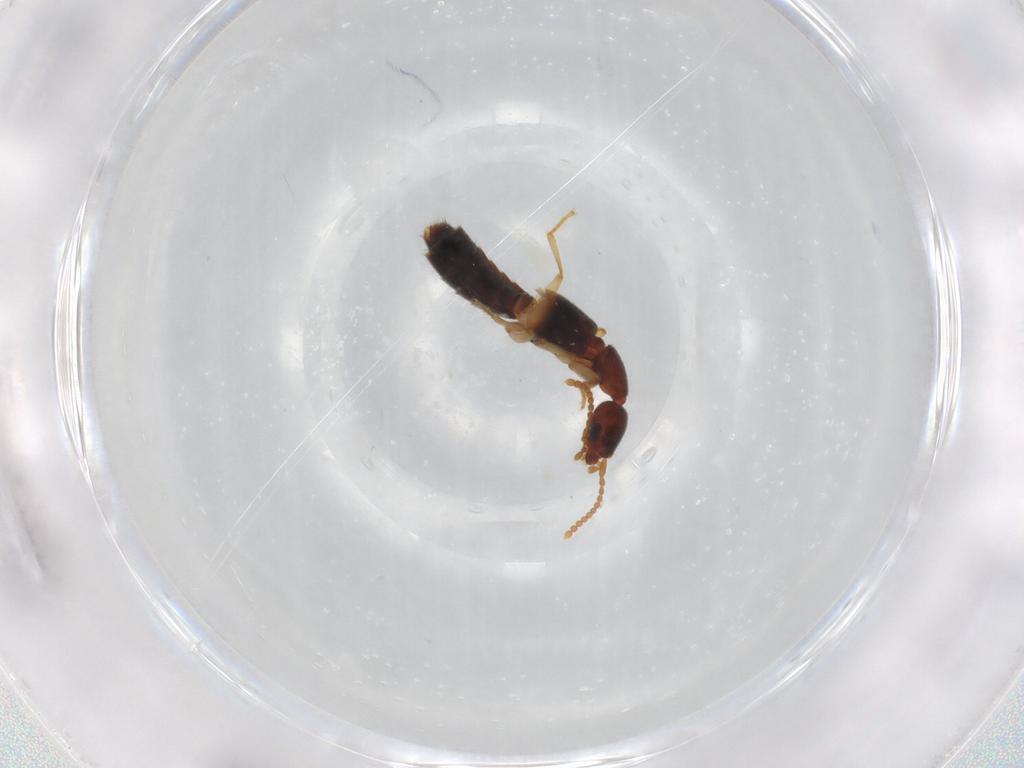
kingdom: Animalia
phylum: Arthropoda
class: Insecta
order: Coleoptera
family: Staphylinidae
